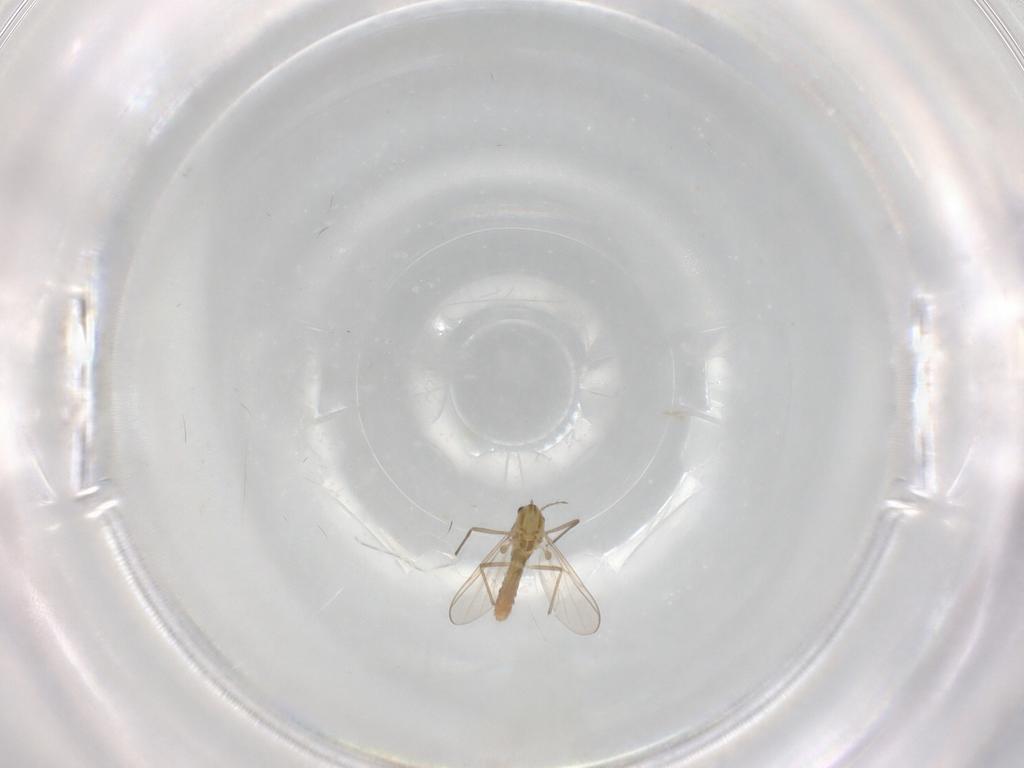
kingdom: Animalia
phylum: Arthropoda
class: Insecta
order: Diptera
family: Chironomidae
